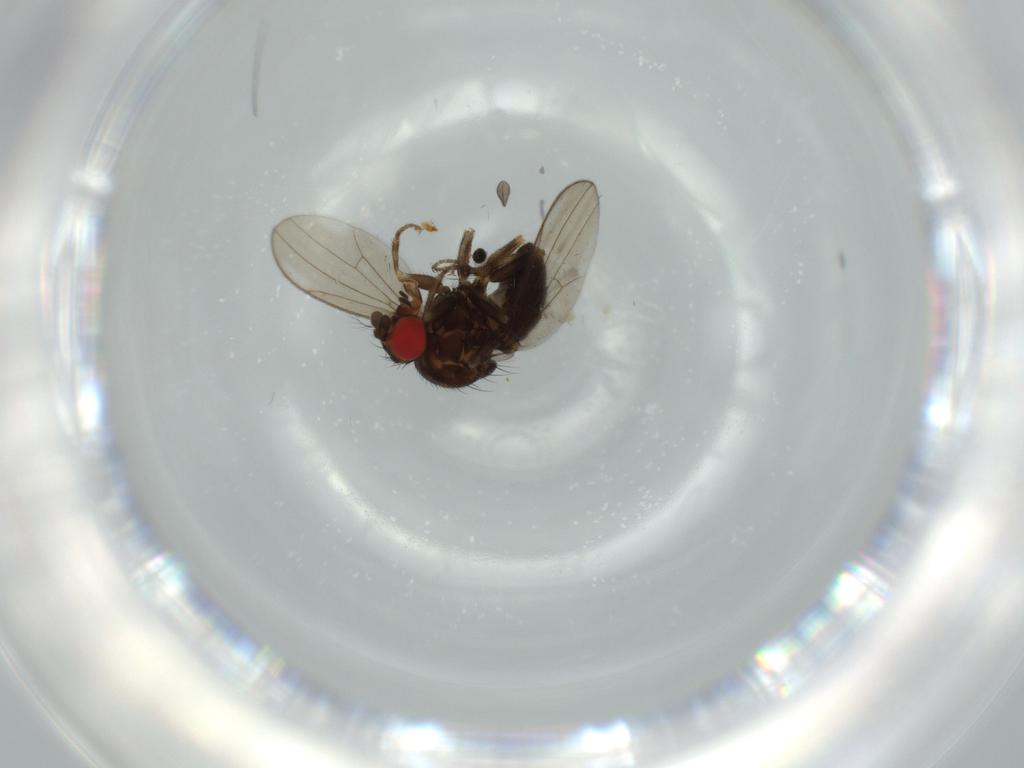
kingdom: Animalia
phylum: Arthropoda
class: Insecta
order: Diptera
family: Drosophilidae
